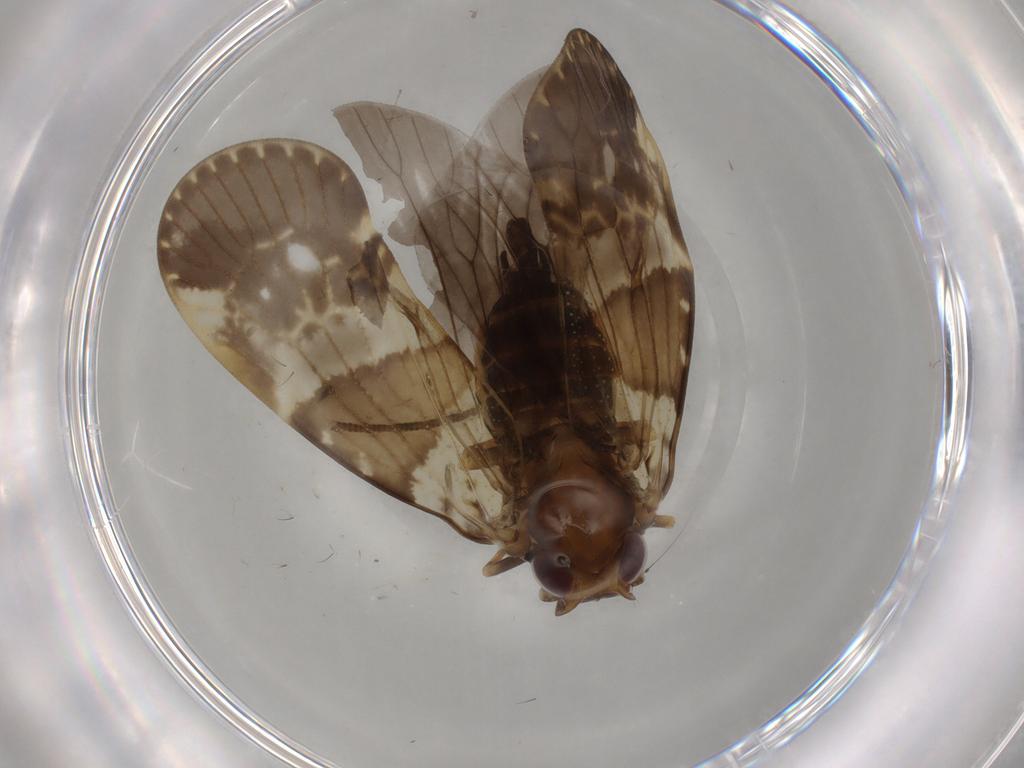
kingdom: Animalia
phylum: Arthropoda
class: Insecta
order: Hemiptera
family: Cixiidae
